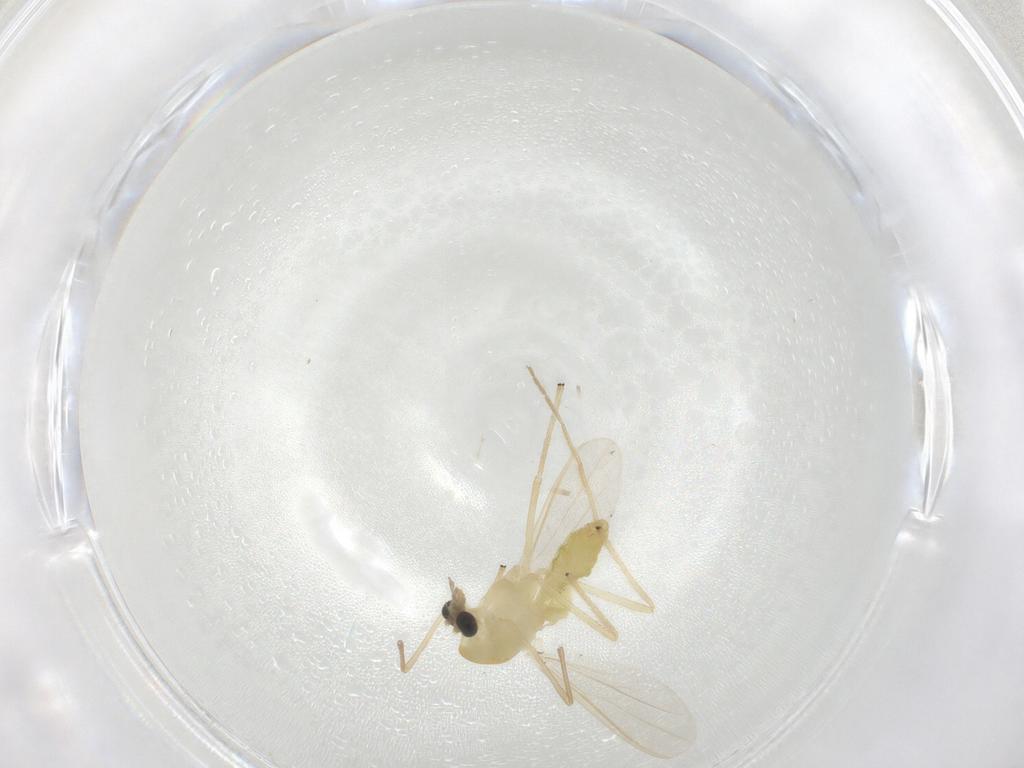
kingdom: Animalia
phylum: Arthropoda
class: Insecta
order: Diptera
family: Chironomidae
